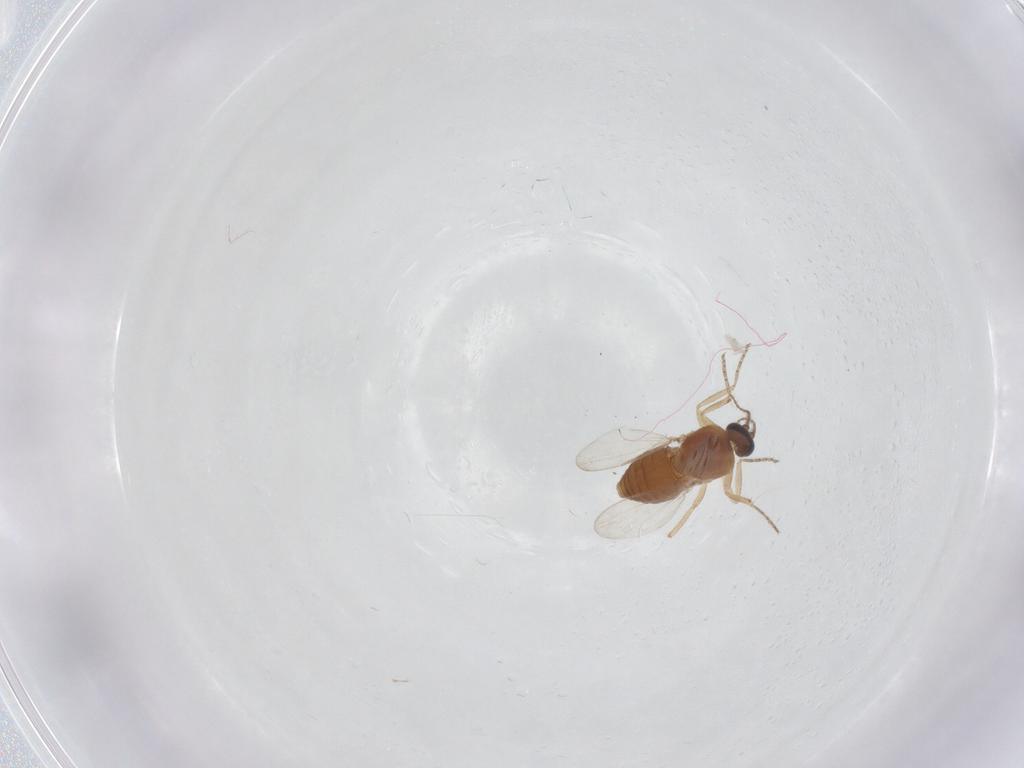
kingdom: Animalia
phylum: Arthropoda
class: Insecta
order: Diptera
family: Ceratopogonidae
